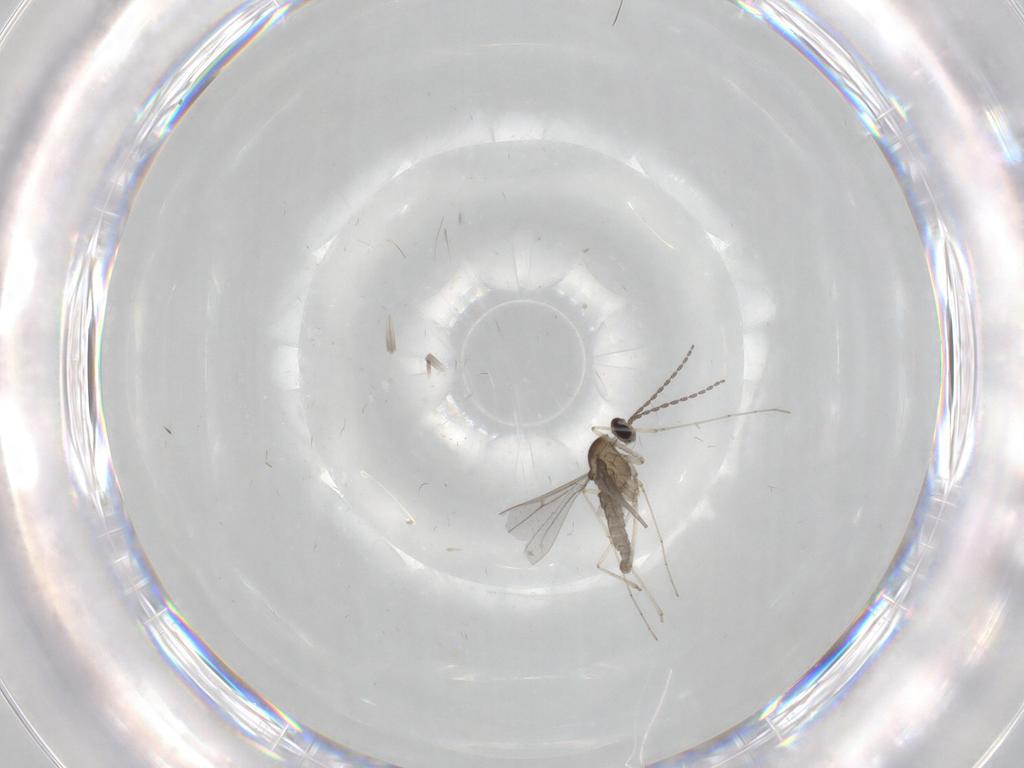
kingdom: Animalia
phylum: Arthropoda
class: Insecta
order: Diptera
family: Cecidomyiidae
